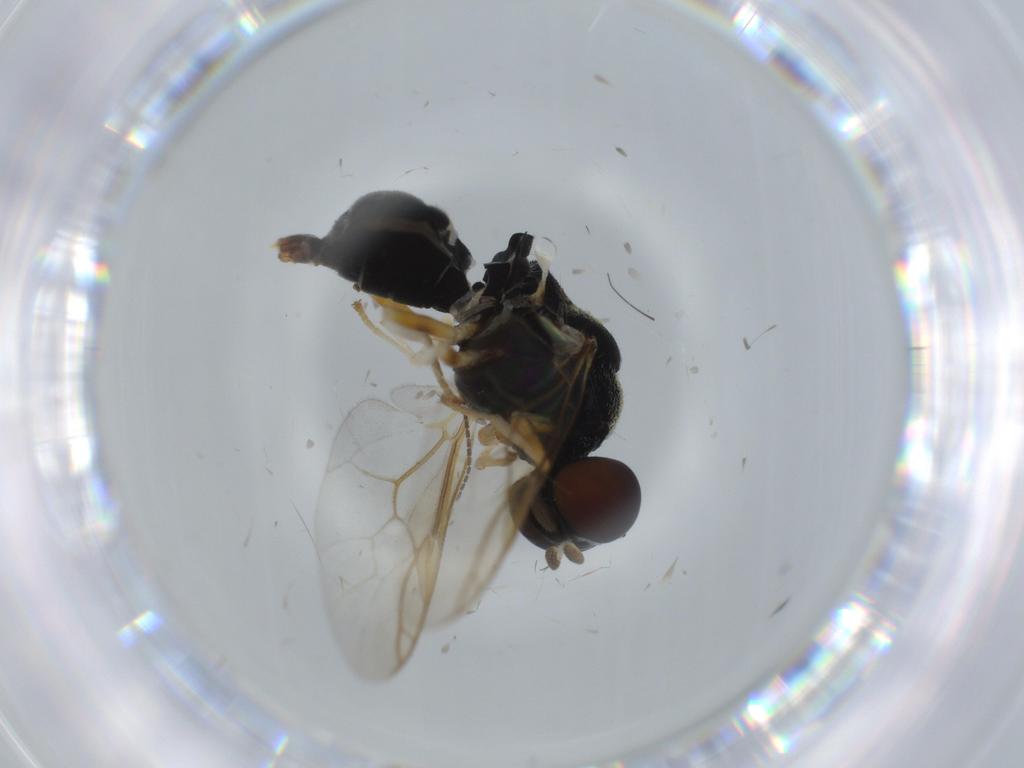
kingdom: Animalia
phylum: Arthropoda
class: Insecta
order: Diptera
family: Stratiomyidae
